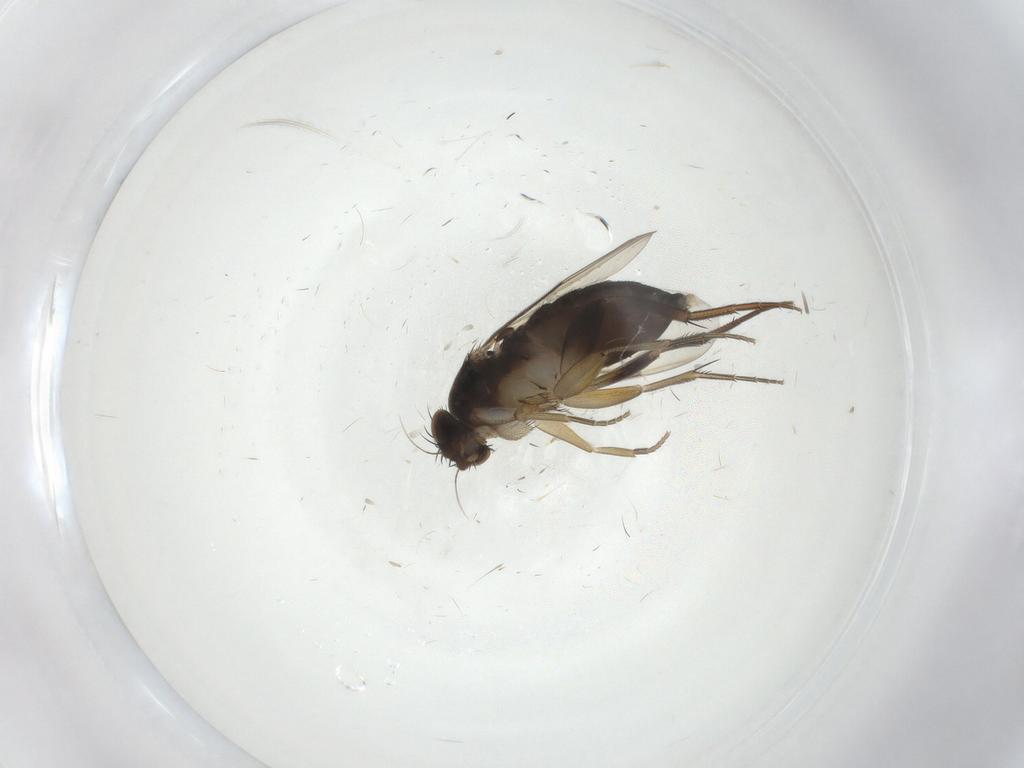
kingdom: Animalia
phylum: Arthropoda
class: Insecta
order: Diptera
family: Phoridae
